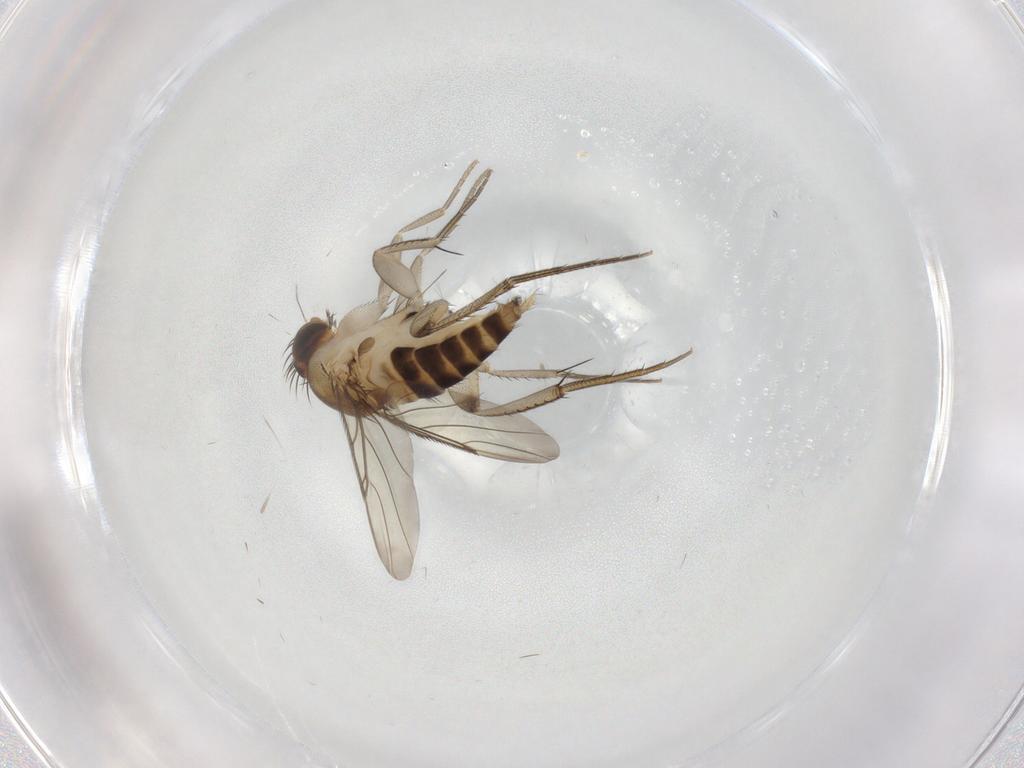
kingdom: Animalia
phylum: Arthropoda
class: Insecta
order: Diptera
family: Phoridae
